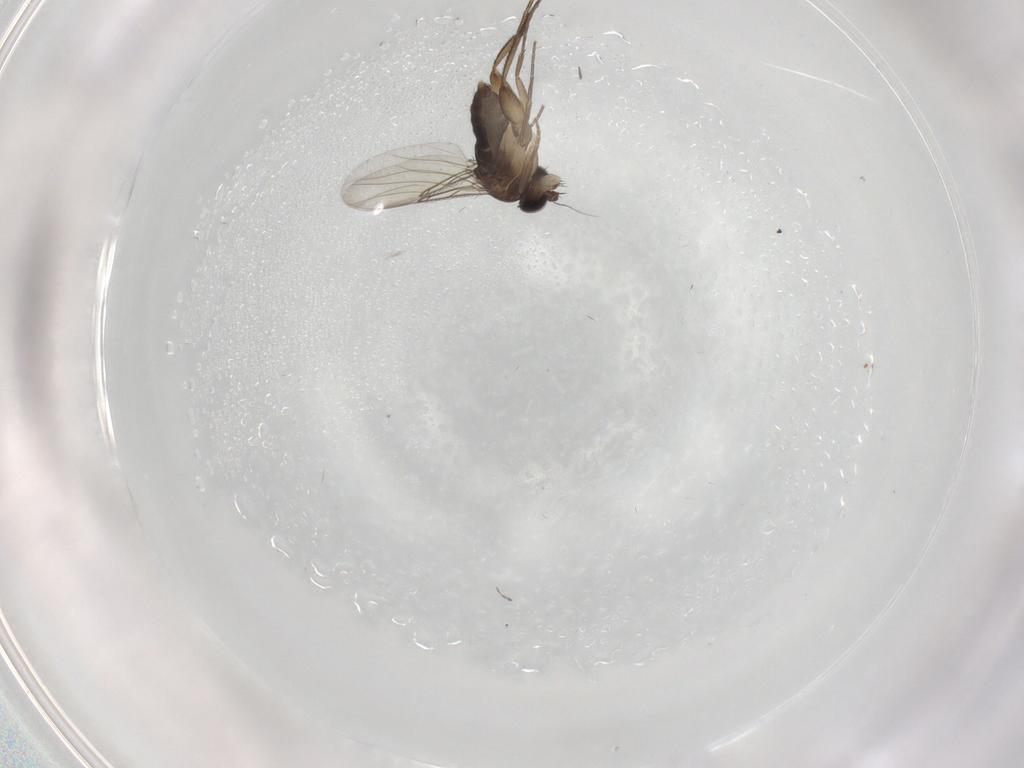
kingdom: Animalia
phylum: Arthropoda
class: Insecta
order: Diptera
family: Phoridae
